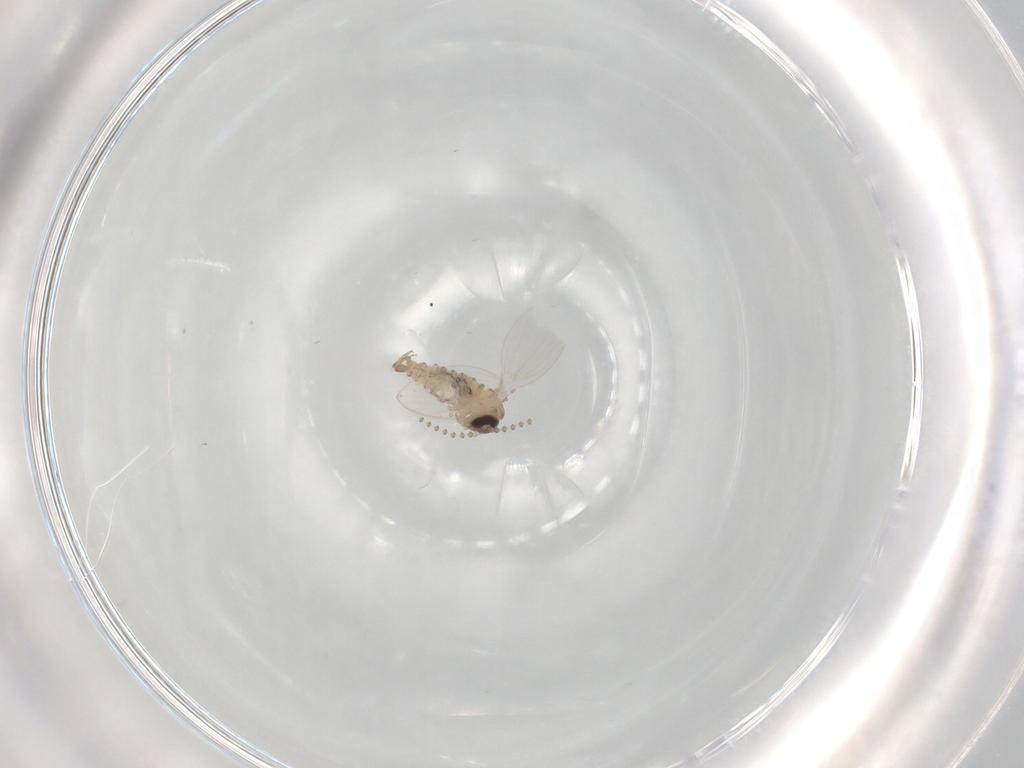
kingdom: Animalia
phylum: Arthropoda
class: Insecta
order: Diptera
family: Psychodidae
